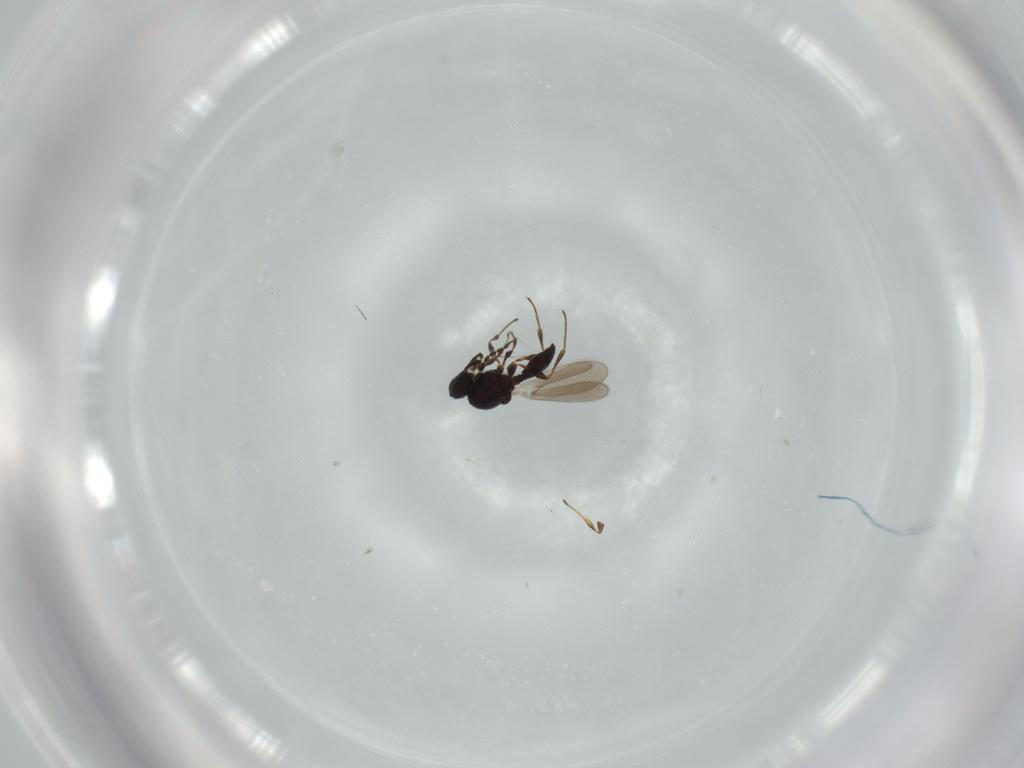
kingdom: Animalia
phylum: Arthropoda
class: Insecta
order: Hymenoptera
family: Platygastridae
